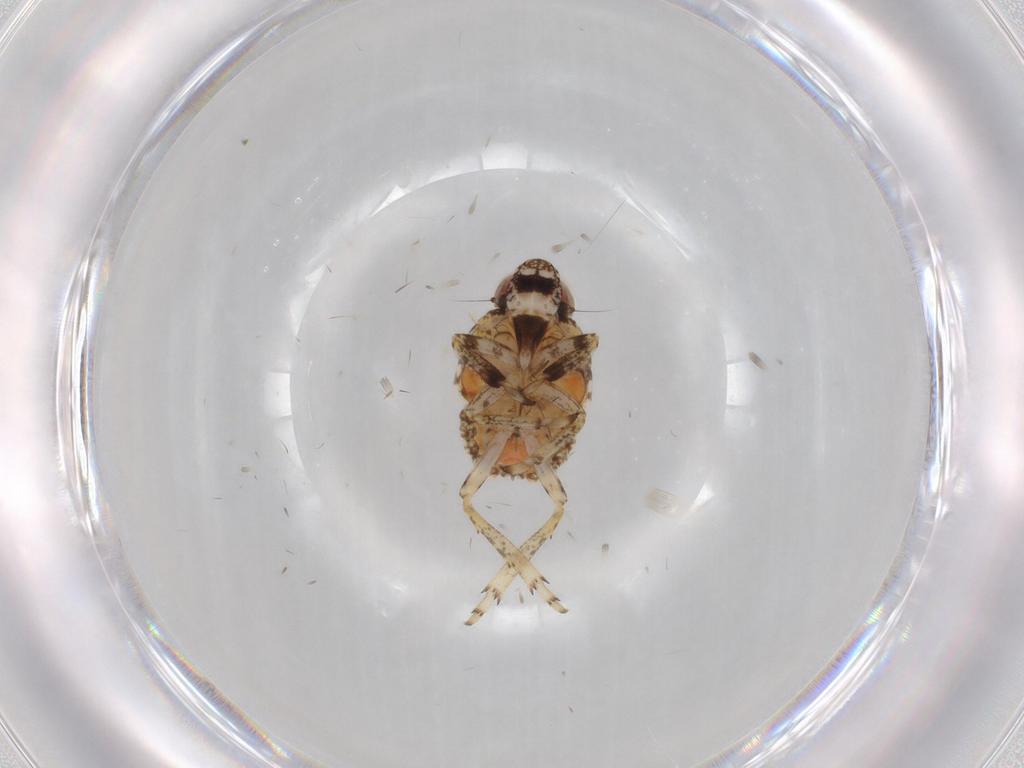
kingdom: Animalia
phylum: Arthropoda
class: Insecta
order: Hemiptera
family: Issidae
